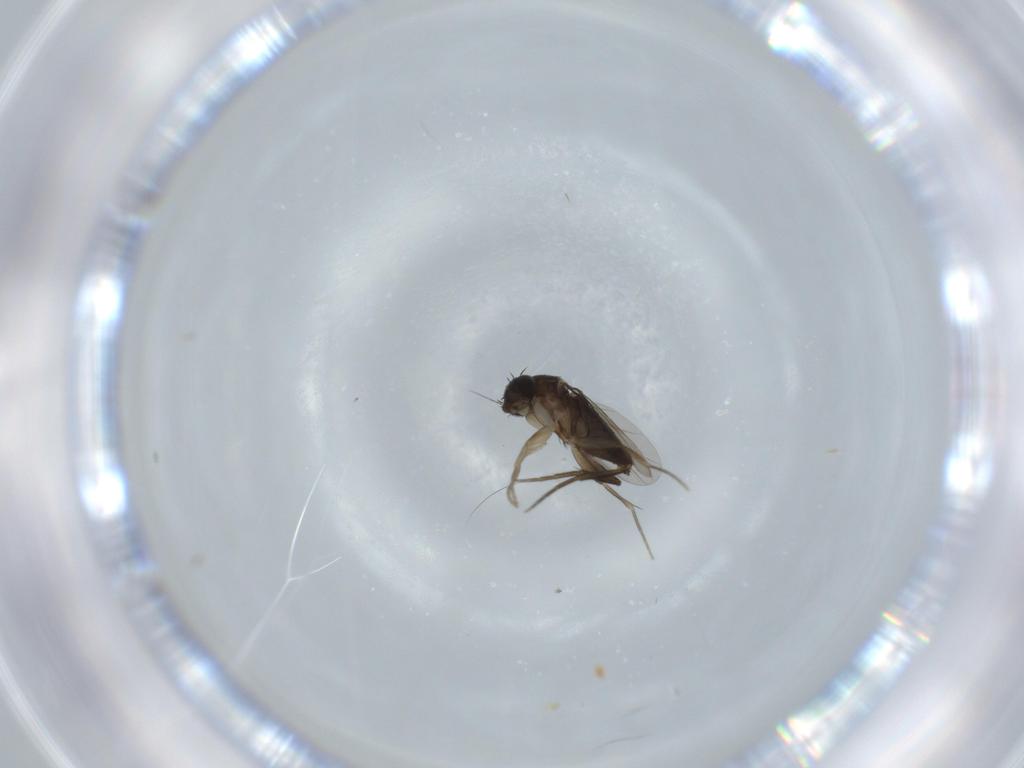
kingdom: Animalia
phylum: Arthropoda
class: Insecta
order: Diptera
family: Phoridae
